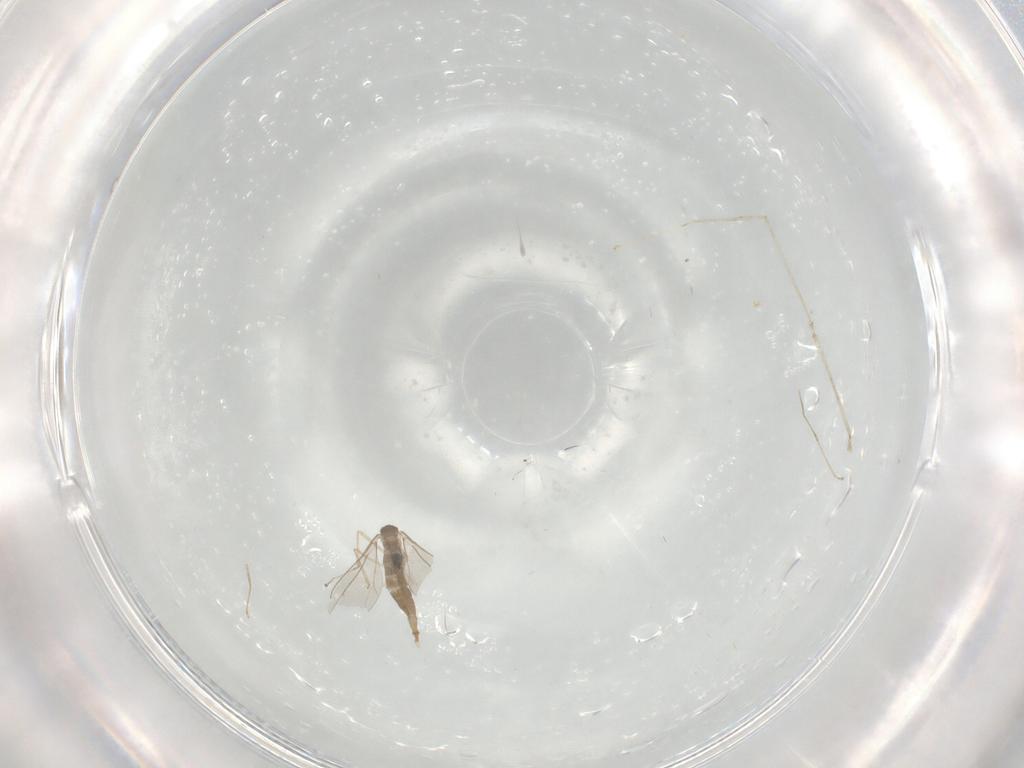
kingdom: Animalia
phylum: Arthropoda
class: Insecta
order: Diptera
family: Cecidomyiidae
